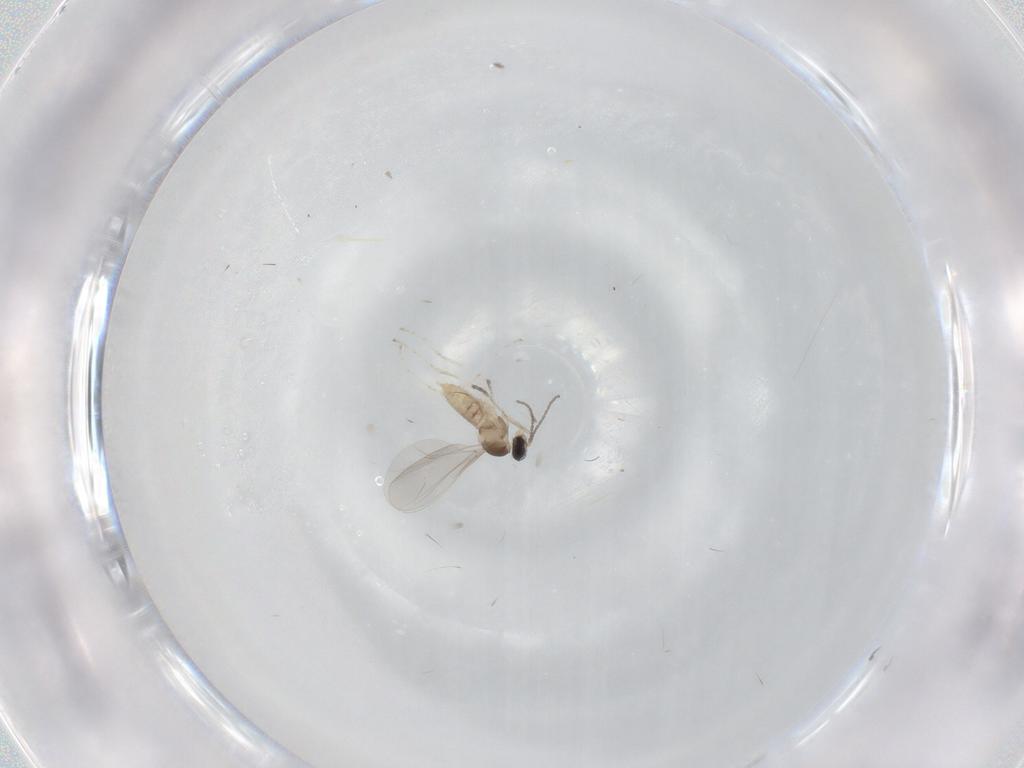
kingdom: Animalia
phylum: Arthropoda
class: Insecta
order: Diptera
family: Cecidomyiidae
